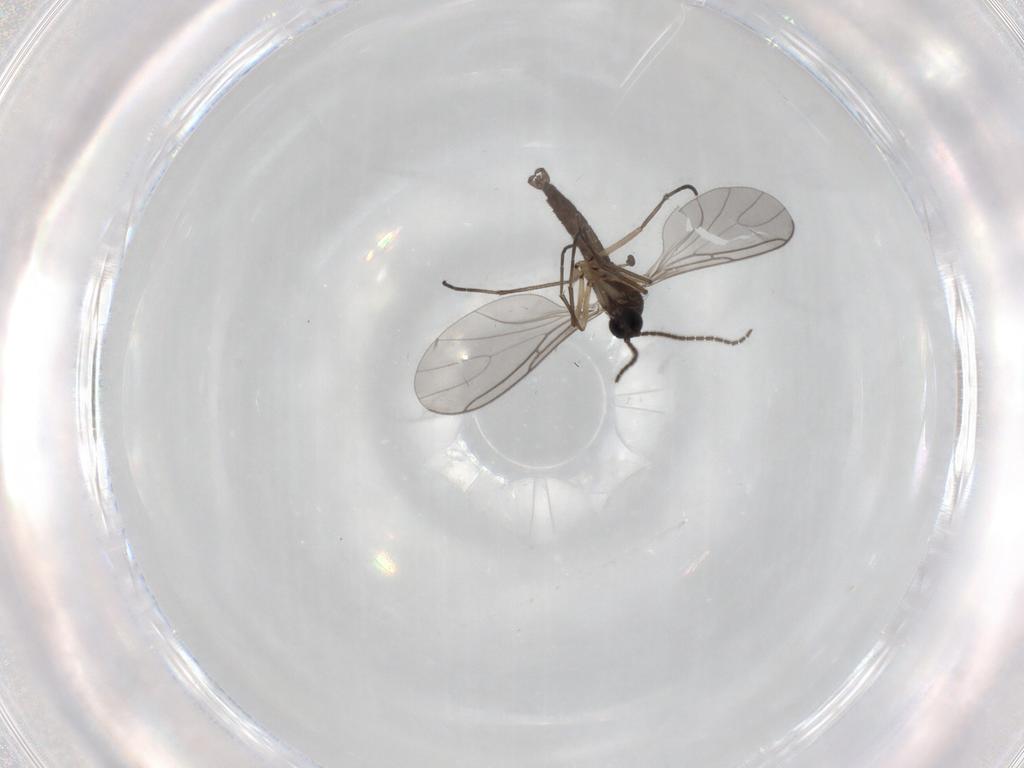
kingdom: Animalia
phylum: Arthropoda
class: Insecta
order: Diptera
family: Sciaridae
